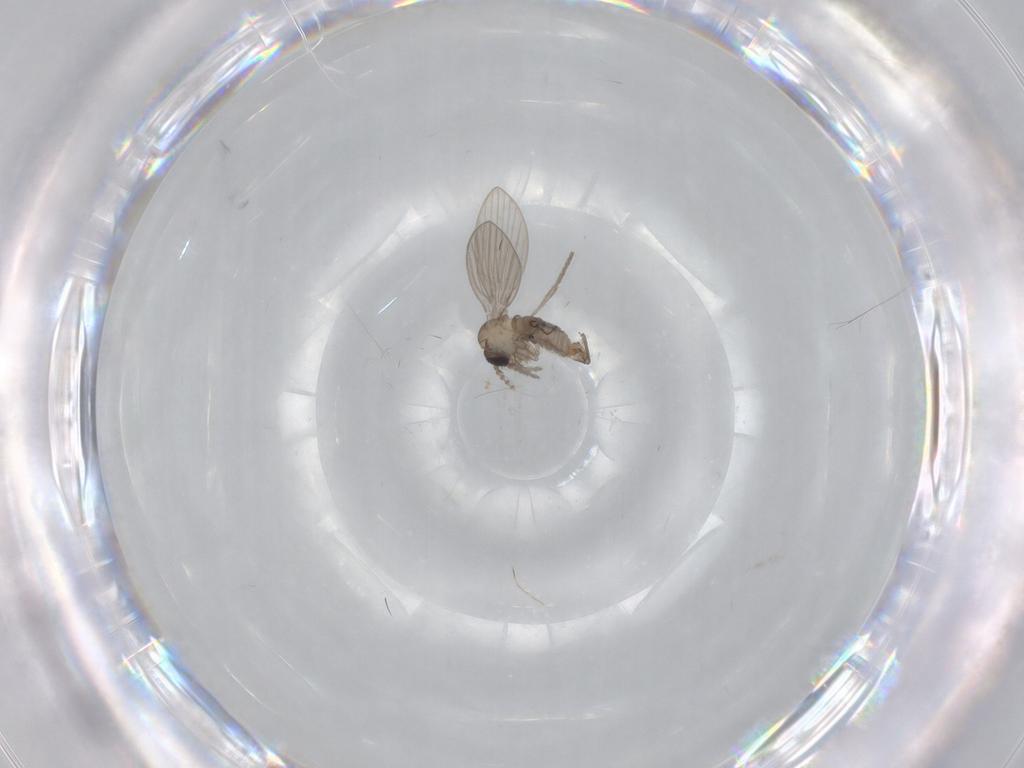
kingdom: Animalia
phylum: Arthropoda
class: Insecta
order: Diptera
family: Psychodidae
